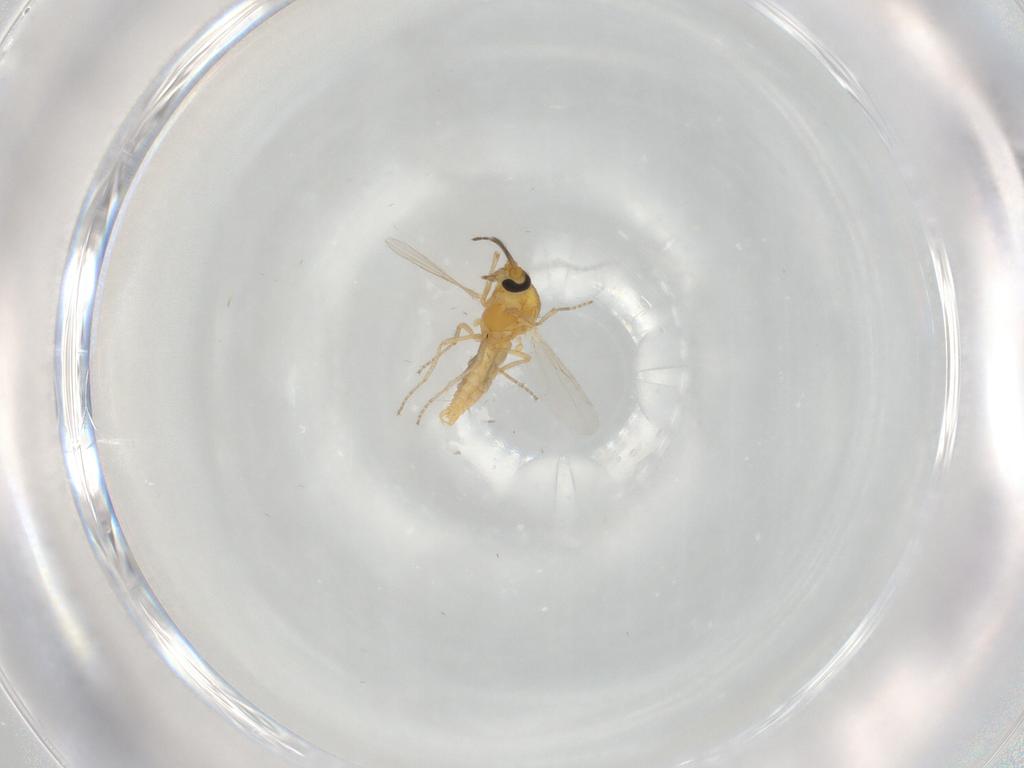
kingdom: Animalia
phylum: Arthropoda
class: Insecta
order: Diptera
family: Ceratopogonidae
